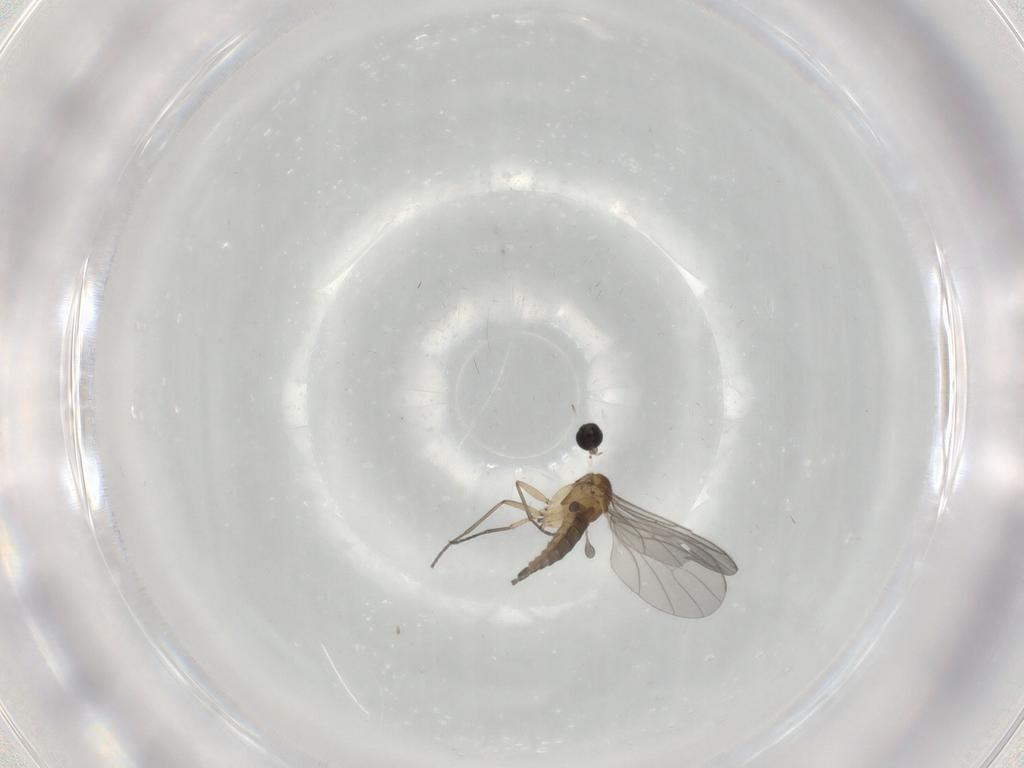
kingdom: Animalia
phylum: Arthropoda
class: Insecta
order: Diptera
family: Sciaridae
